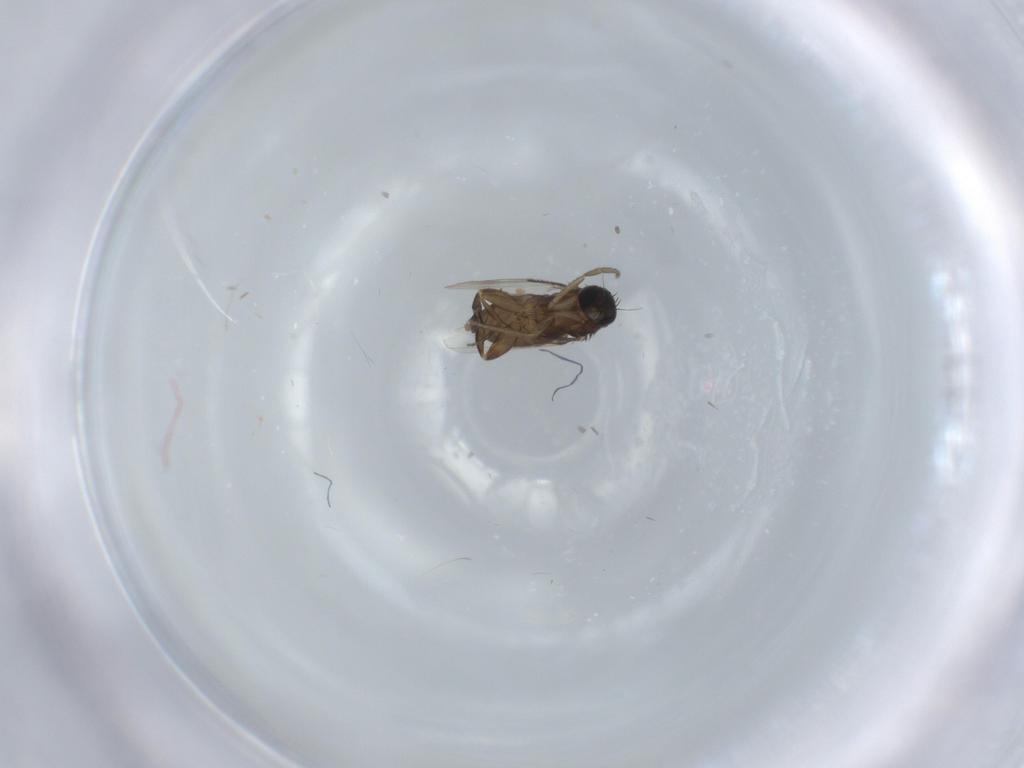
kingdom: Animalia
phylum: Arthropoda
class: Insecta
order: Diptera
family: Phoridae
